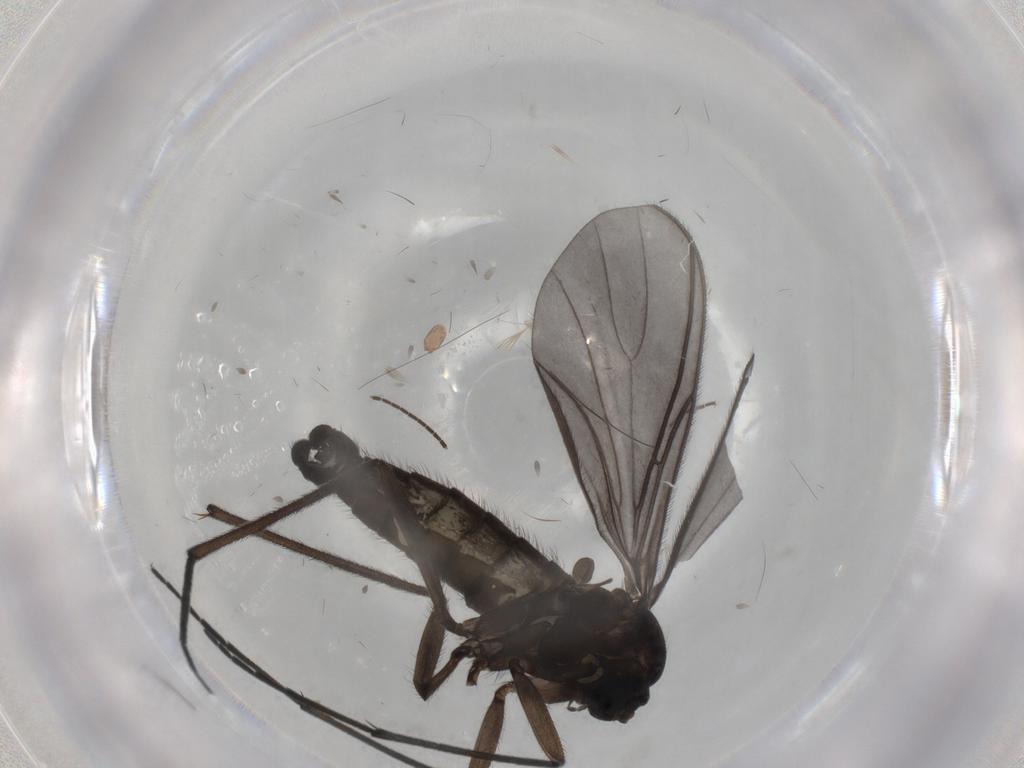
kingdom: Animalia
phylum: Arthropoda
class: Insecta
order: Diptera
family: Sciaridae
